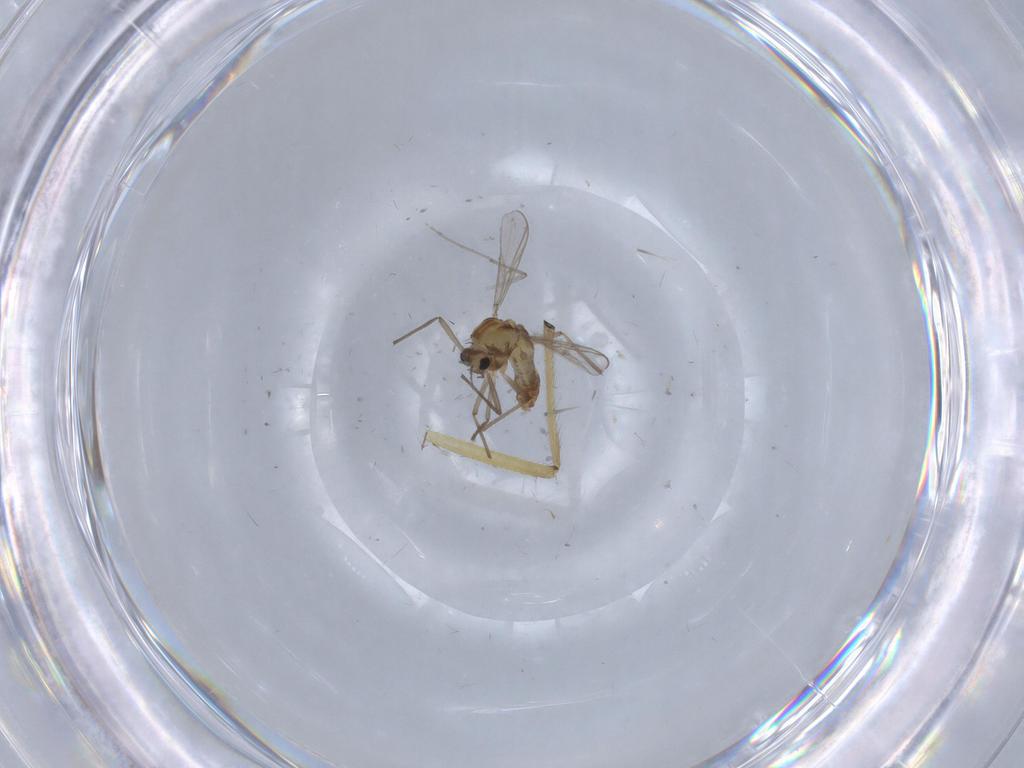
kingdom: Animalia
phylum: Arthropoda
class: Insecta
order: Diptera
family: Chironomidae
